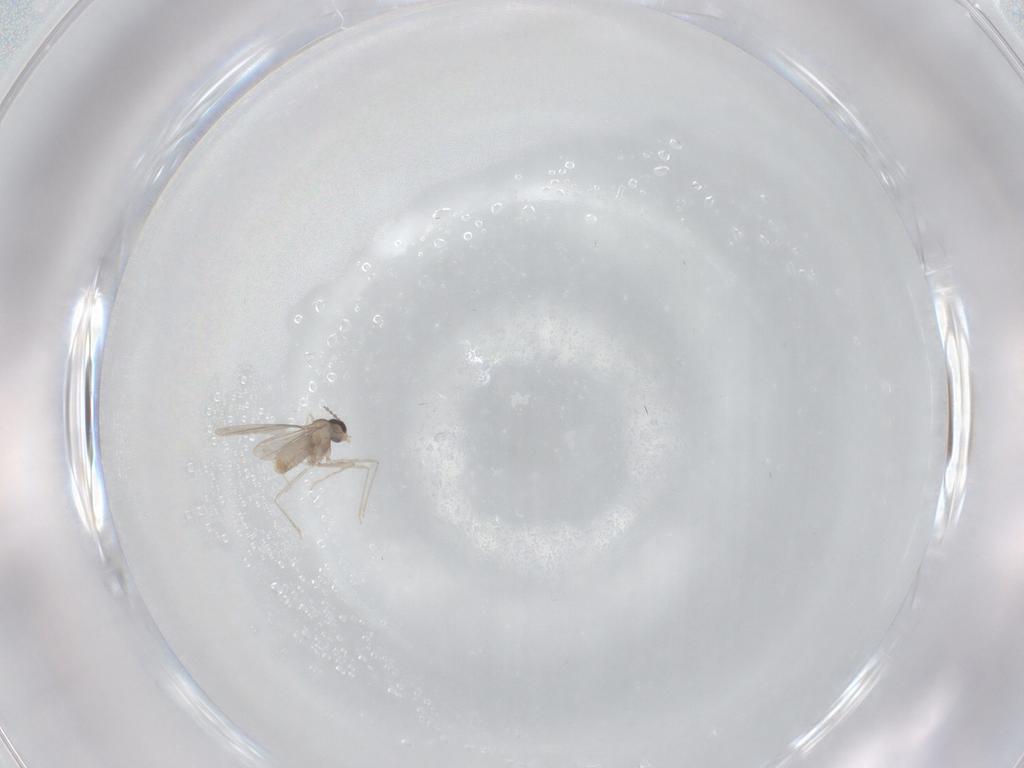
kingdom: Animalia
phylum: Arthropoda
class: Insecta
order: Diptera
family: Cecidomyiidae
